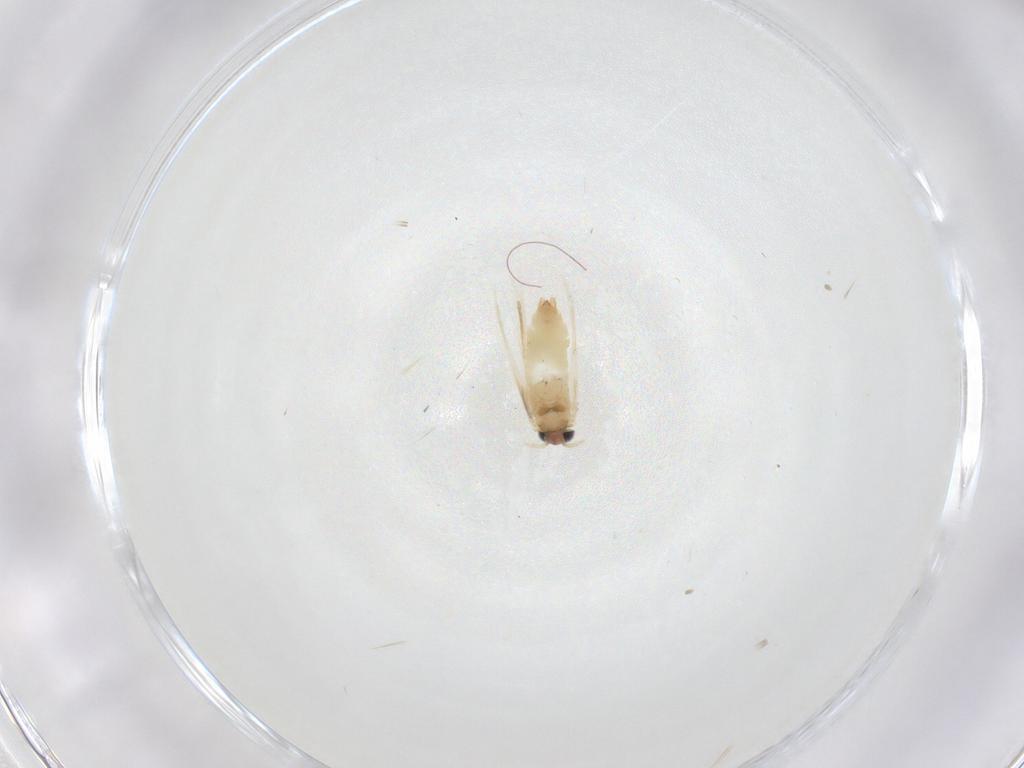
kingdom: Animalia
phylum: Arthropoda
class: Insecta
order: Lepidoptera
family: Crambidae
